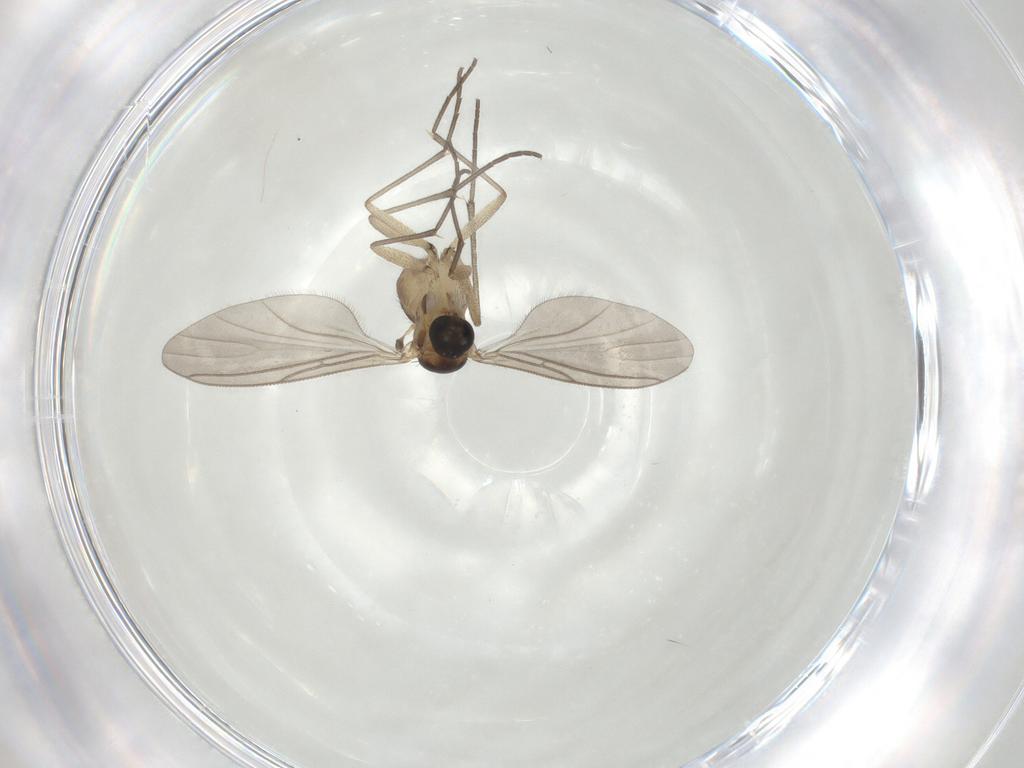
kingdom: Animalia
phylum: Arthropoda
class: Insecta
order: Diptera
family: Sciaridae
